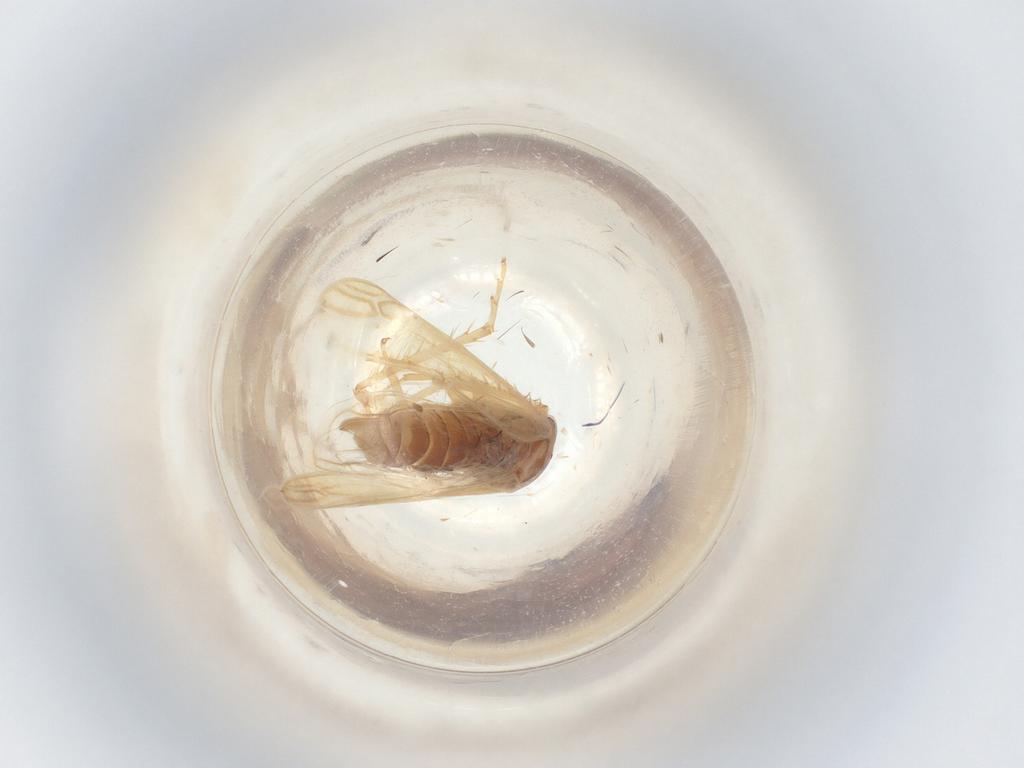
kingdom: Animalia
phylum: Arthropoda
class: Insecta
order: Hemiptera
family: Cicadellidae
